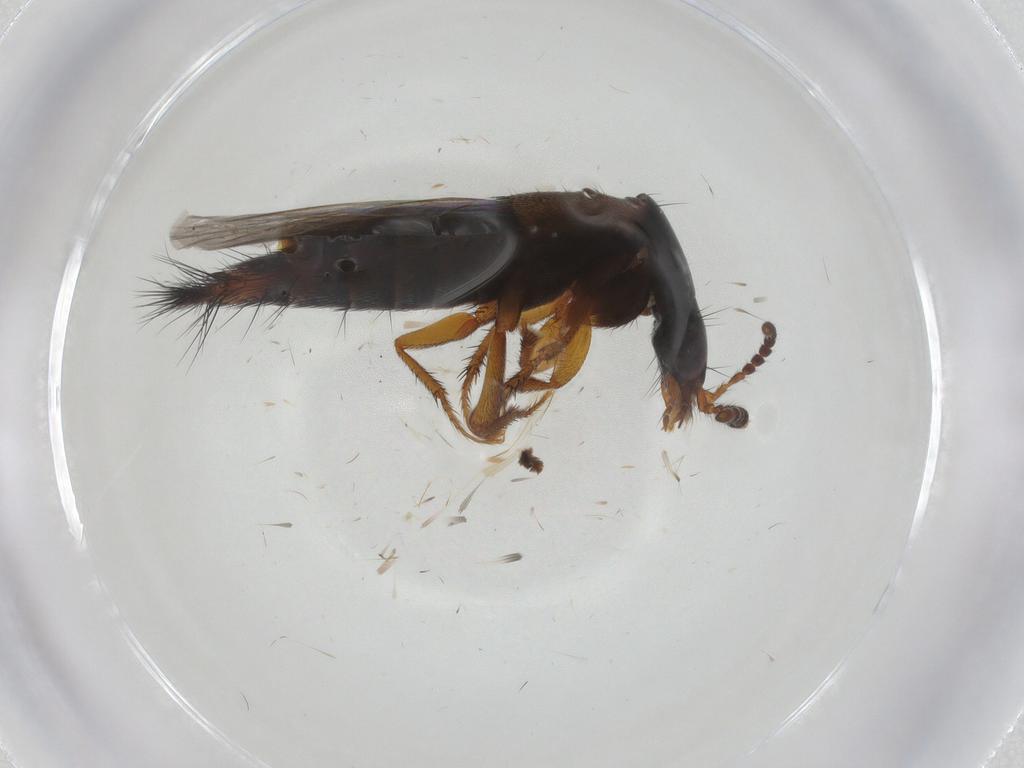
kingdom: Animalia
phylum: Arthropoda
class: Insecta
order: Coleoptera
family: Staphylinidae
